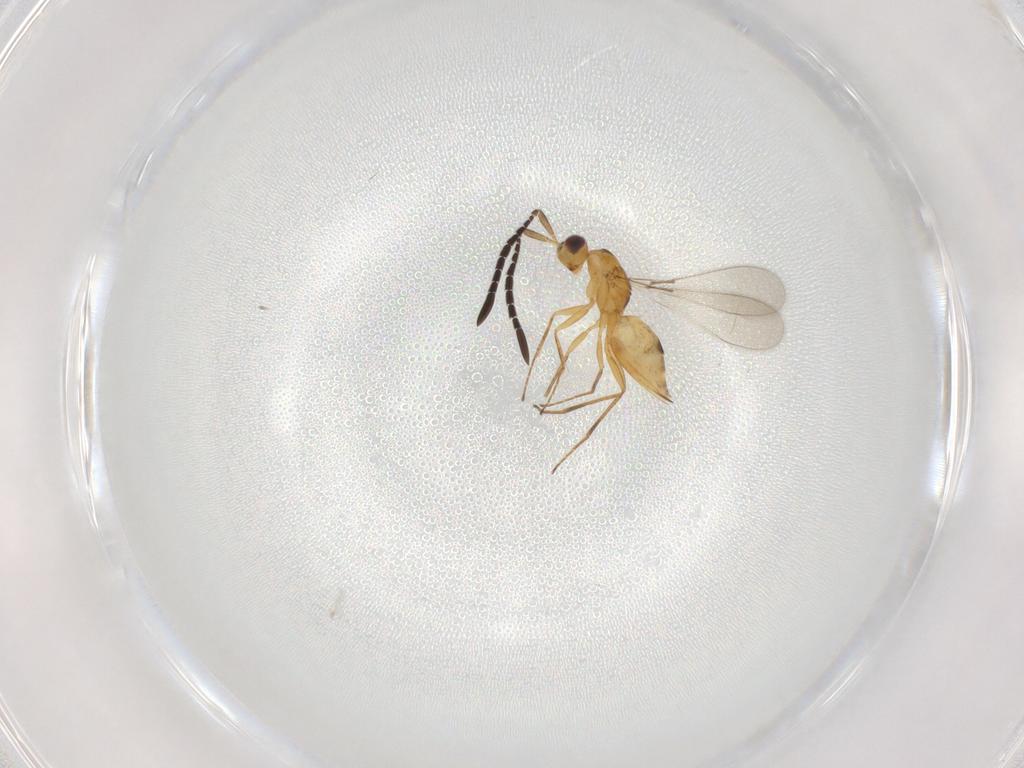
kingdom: Animalia
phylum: Arthropoda
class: Insecta
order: Hymenoptera
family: Mymaridae
